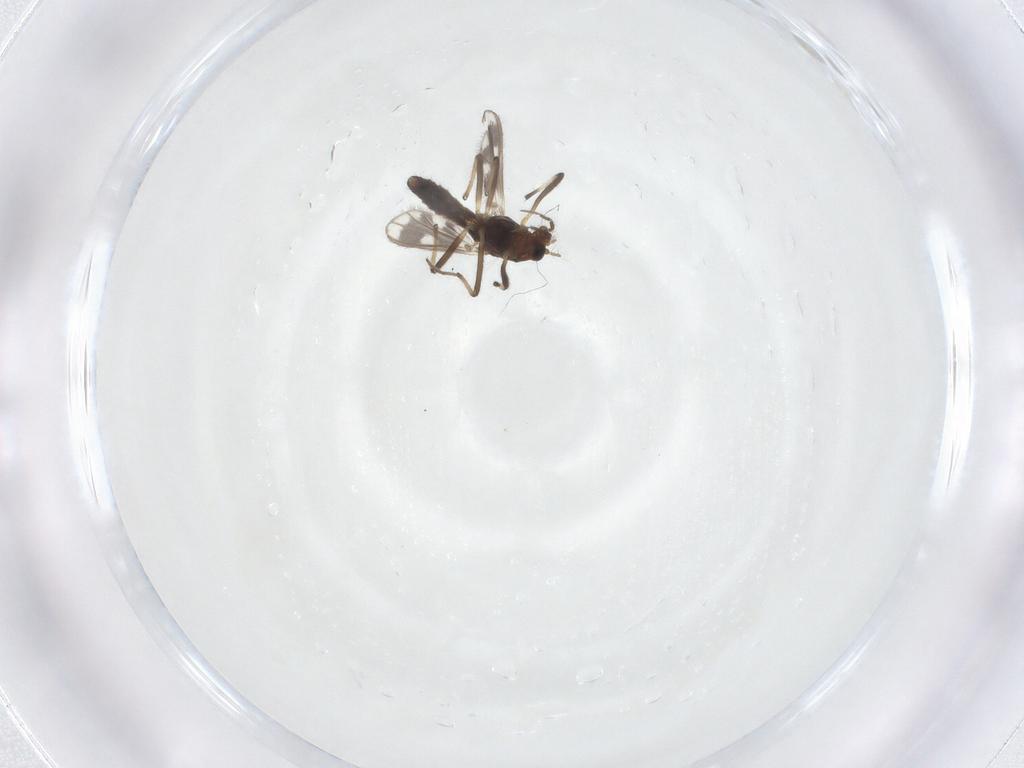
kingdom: Animalia
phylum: Arthropoda
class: Insecta
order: Diptera
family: Chironomidae
